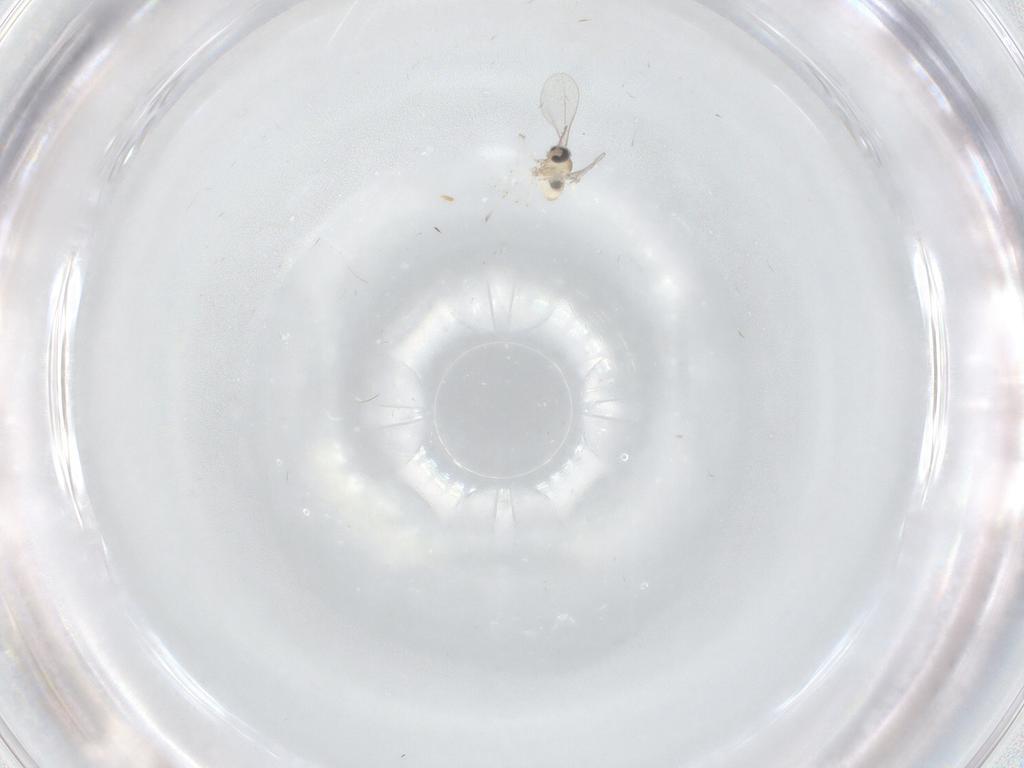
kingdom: Animalia
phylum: Arthropoda
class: Insecta
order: Diptera
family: Cecidomyiidae
